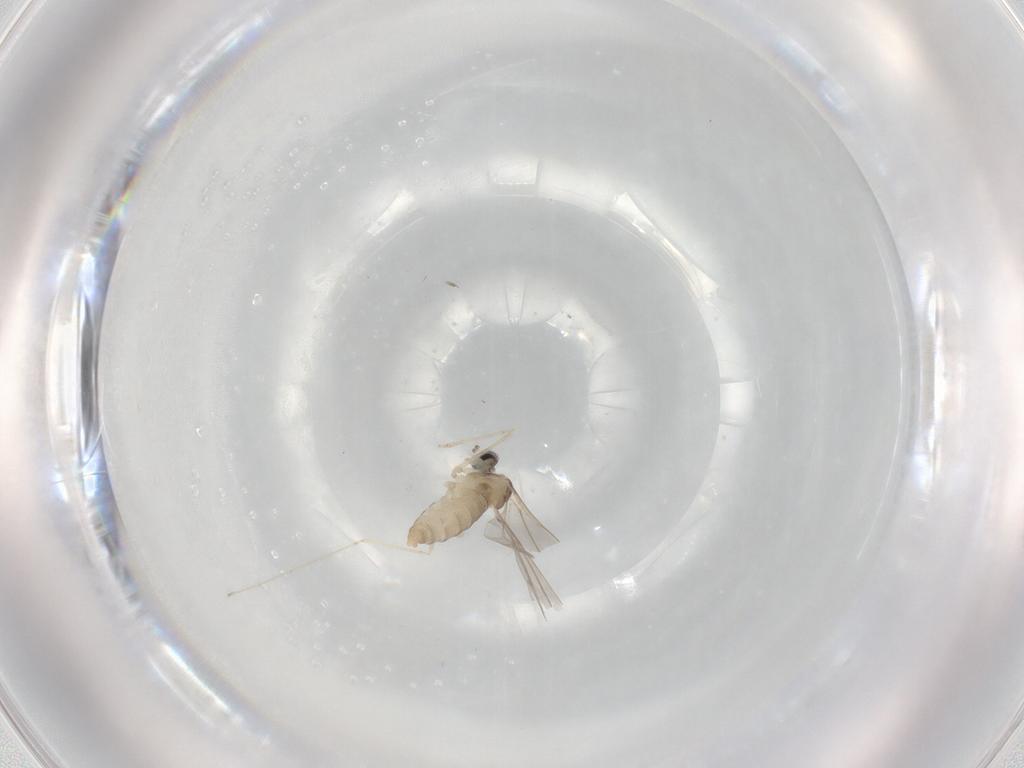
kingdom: Animalia
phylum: Arthropoda
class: Insecta
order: Diptera
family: Cecidomyiidae
